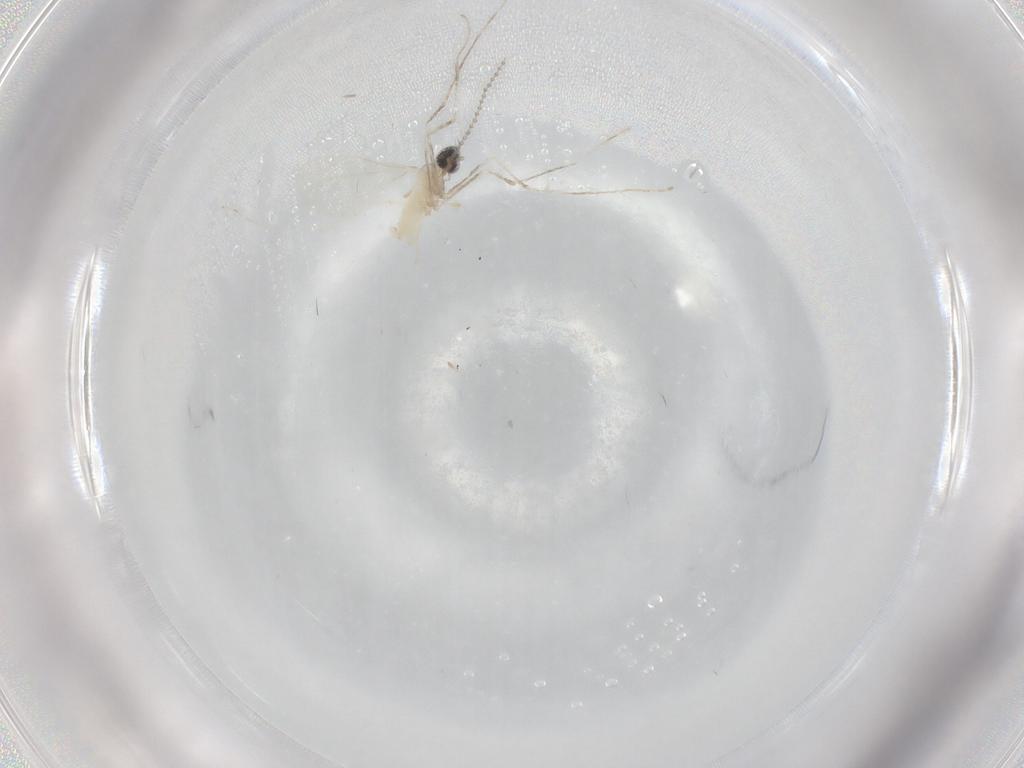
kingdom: Animalia
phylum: Arthropoda
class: Insecta
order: Diptera
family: Cecidomyiidae
